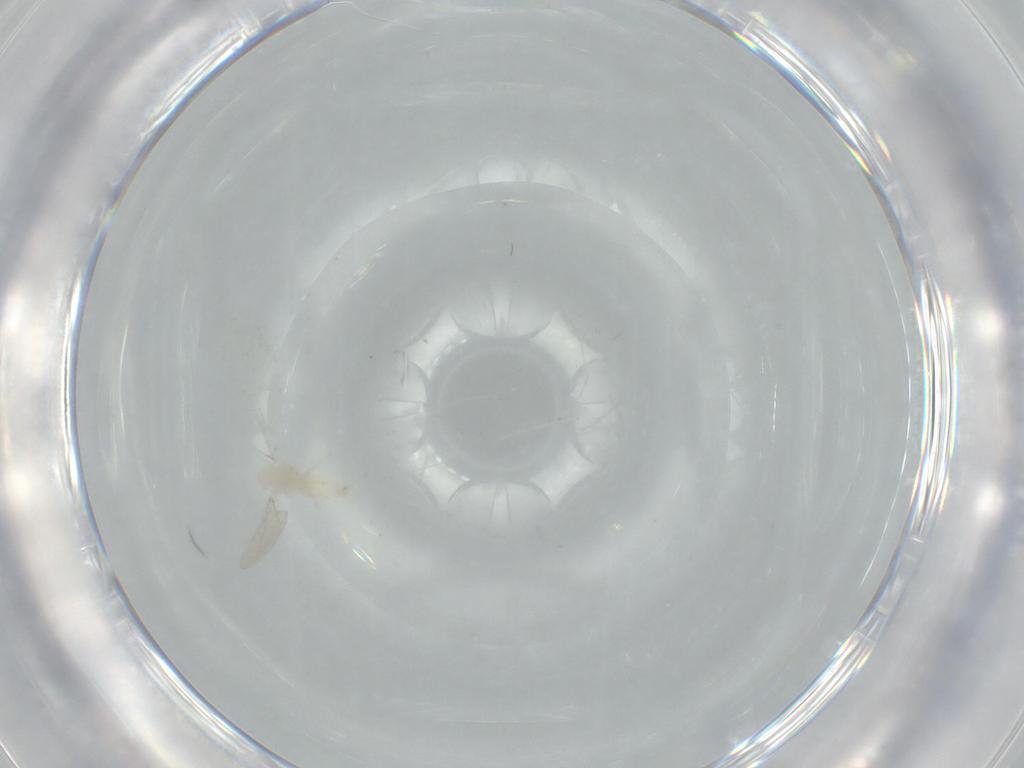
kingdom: Animalia
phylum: Arthropoda
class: Insecta
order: Diptera
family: Cecidomyiidae
